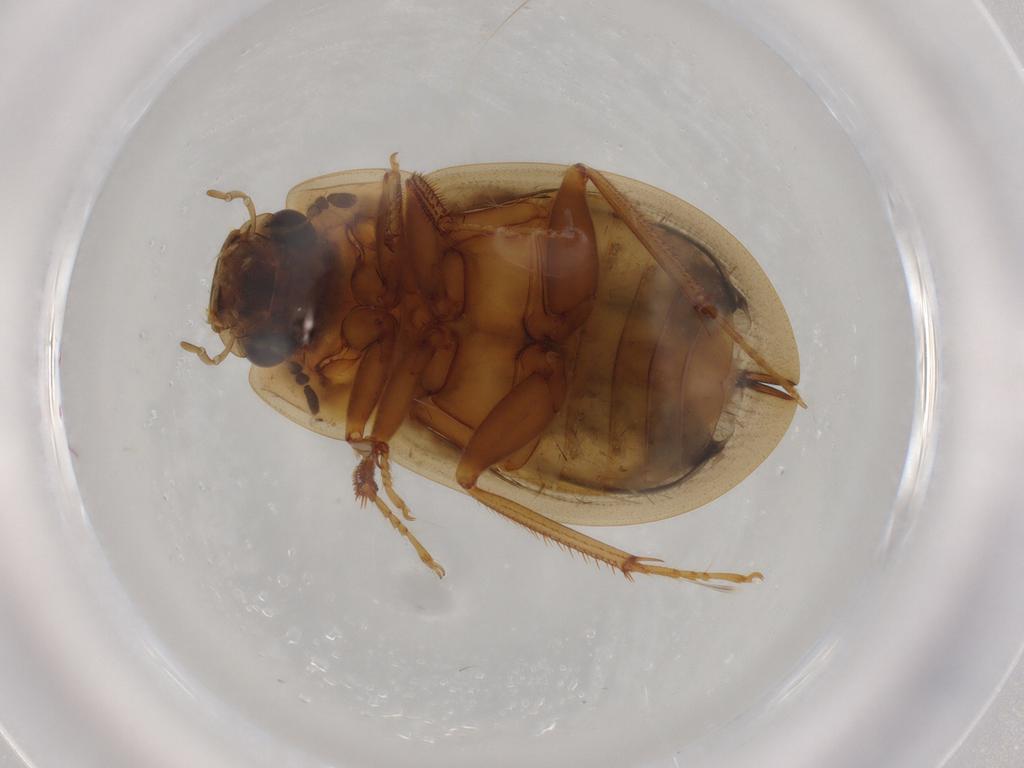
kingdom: Animalia
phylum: Arthropoda
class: Insecta
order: Coleoptera
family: Hydrophilidae
